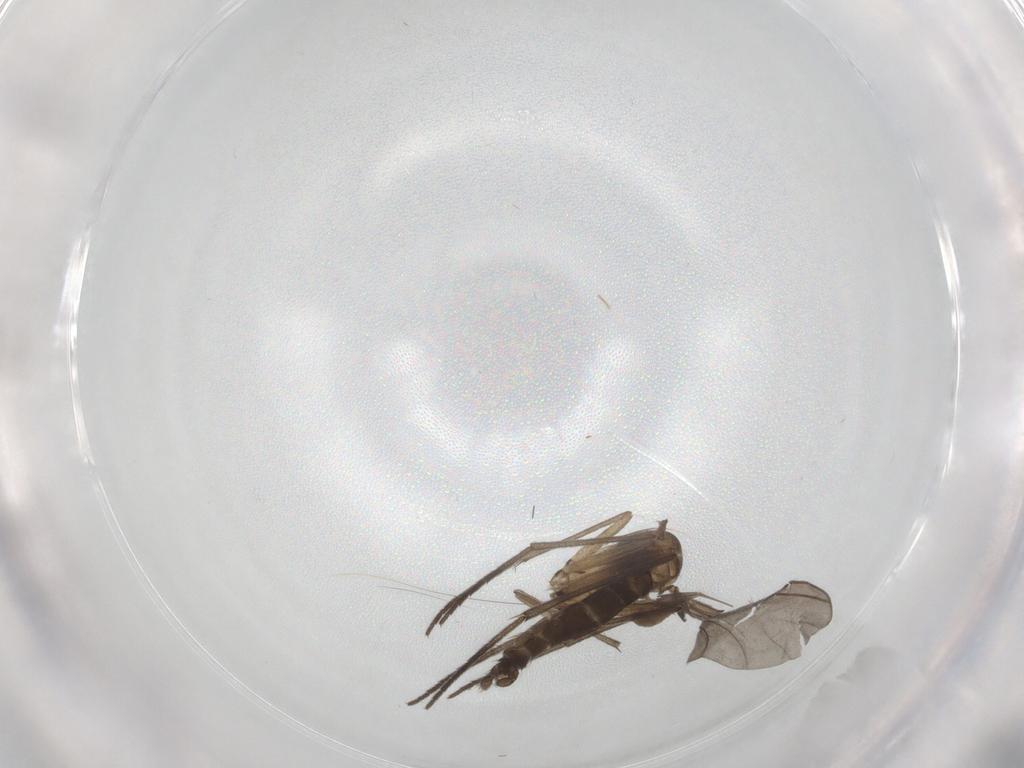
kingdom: Animalia
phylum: Arthropoda
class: Insecta
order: Diptera
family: Sciaridae
